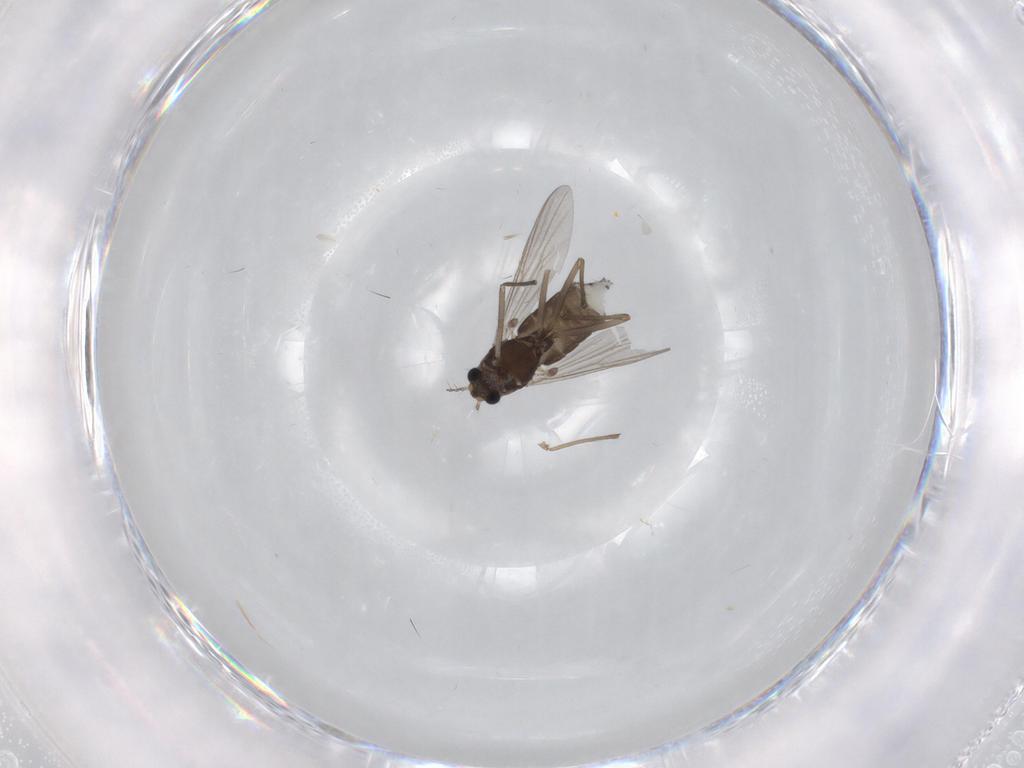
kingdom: Animalia
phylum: Arthropoda
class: Insecta
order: Diptera
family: Chironomidae
